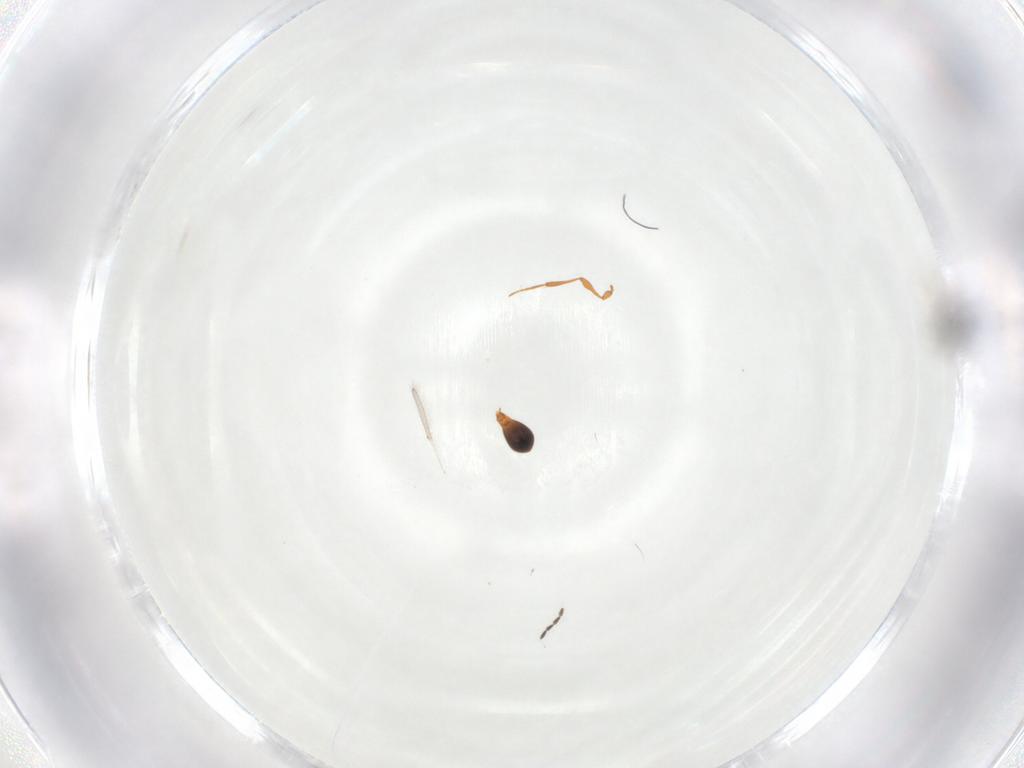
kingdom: Animalia
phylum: Arthropoda
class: Insecta
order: Hymenoptera
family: Platygastridae
